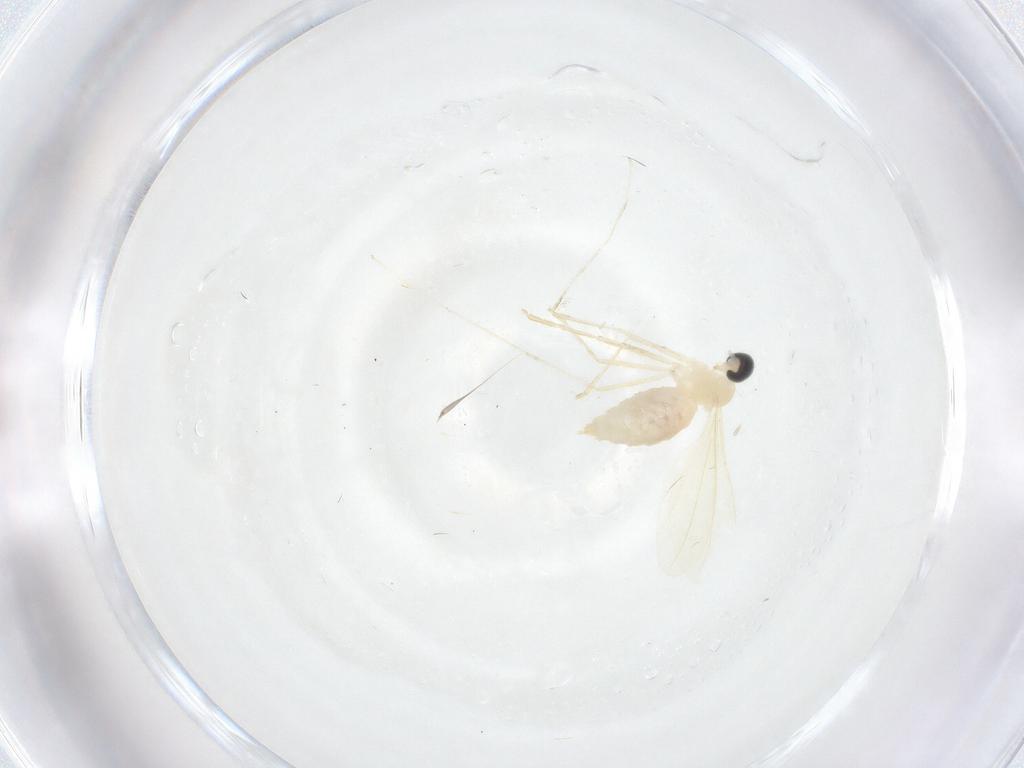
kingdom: Animalia
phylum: Arthropoda
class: Insecta
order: Diptera
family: Cecidomyiidae
